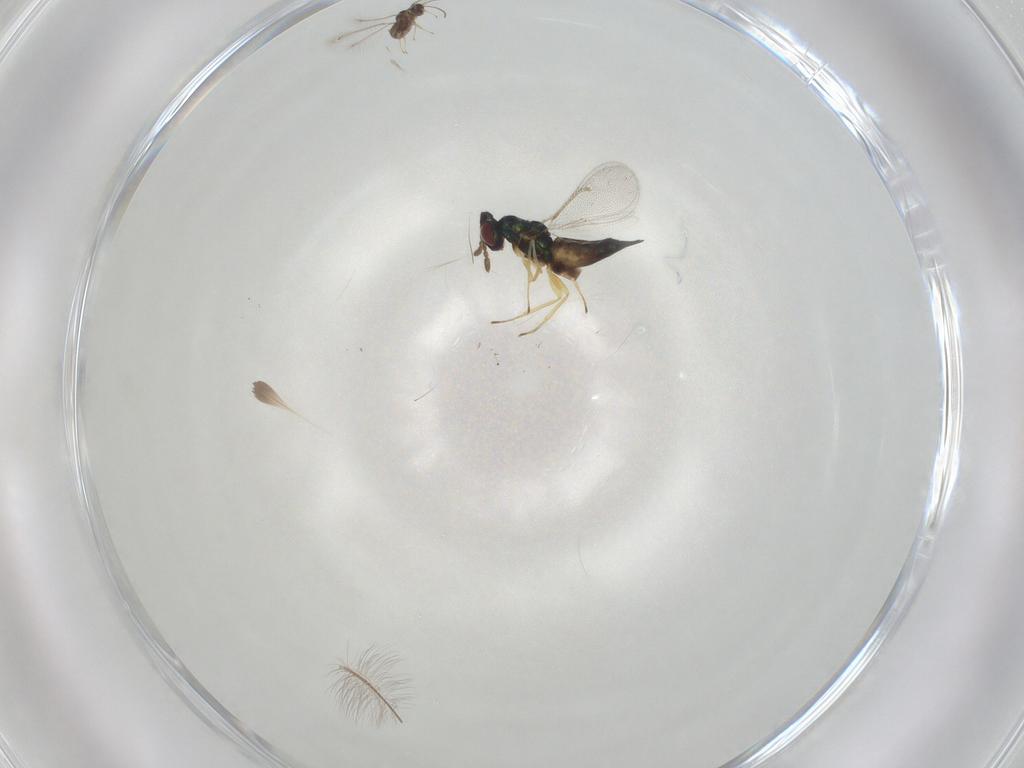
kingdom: Animalia
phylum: Arthropoda
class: Insecta
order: Hymenoptera
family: Eulophidae
